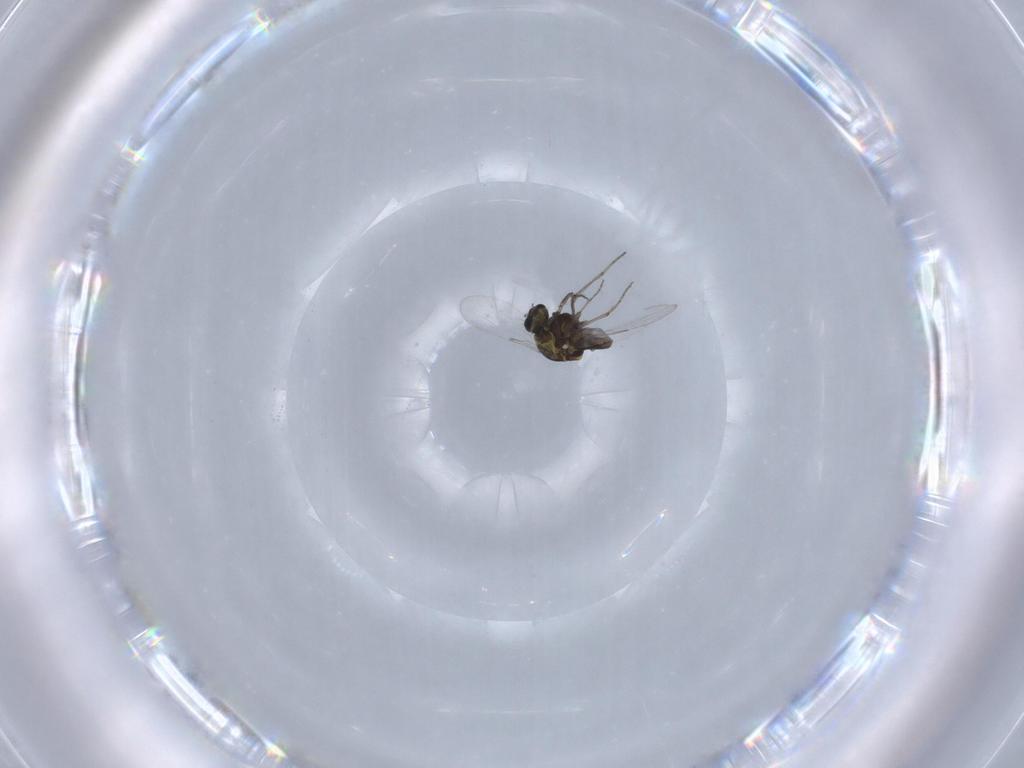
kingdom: Animalia
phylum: Arthropoda
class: Insecta
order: Diptera
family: Ceratopogonidae
